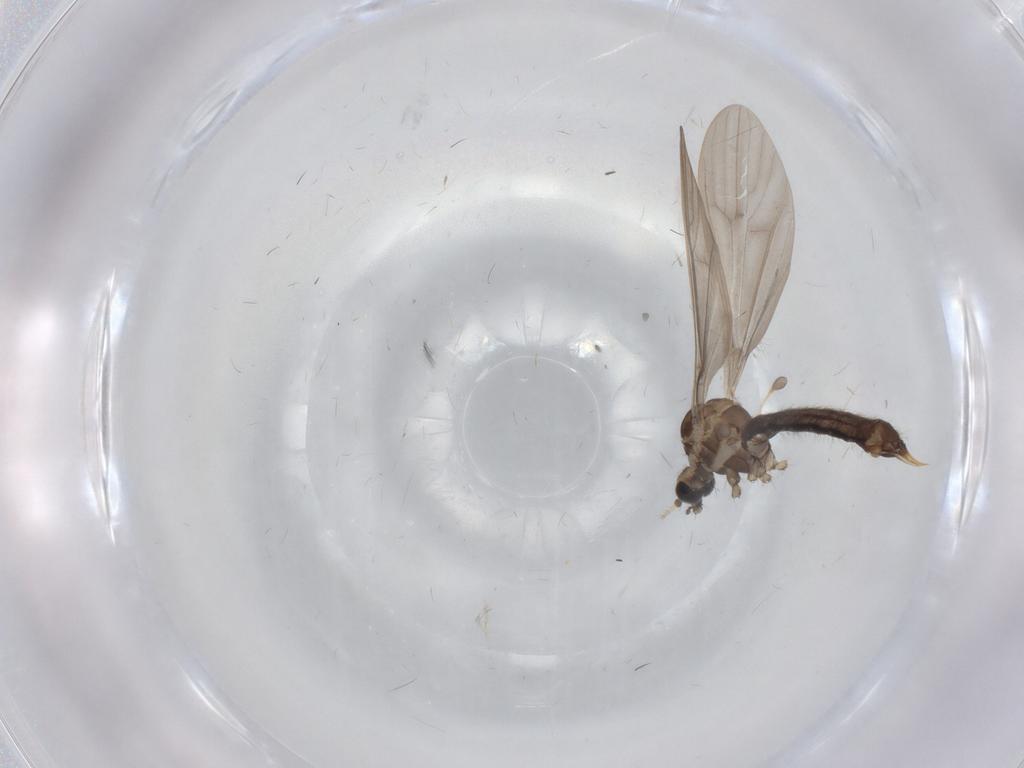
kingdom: Animalia
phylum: Arthropoda
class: Insecta
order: Diptera
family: Limoniidae
